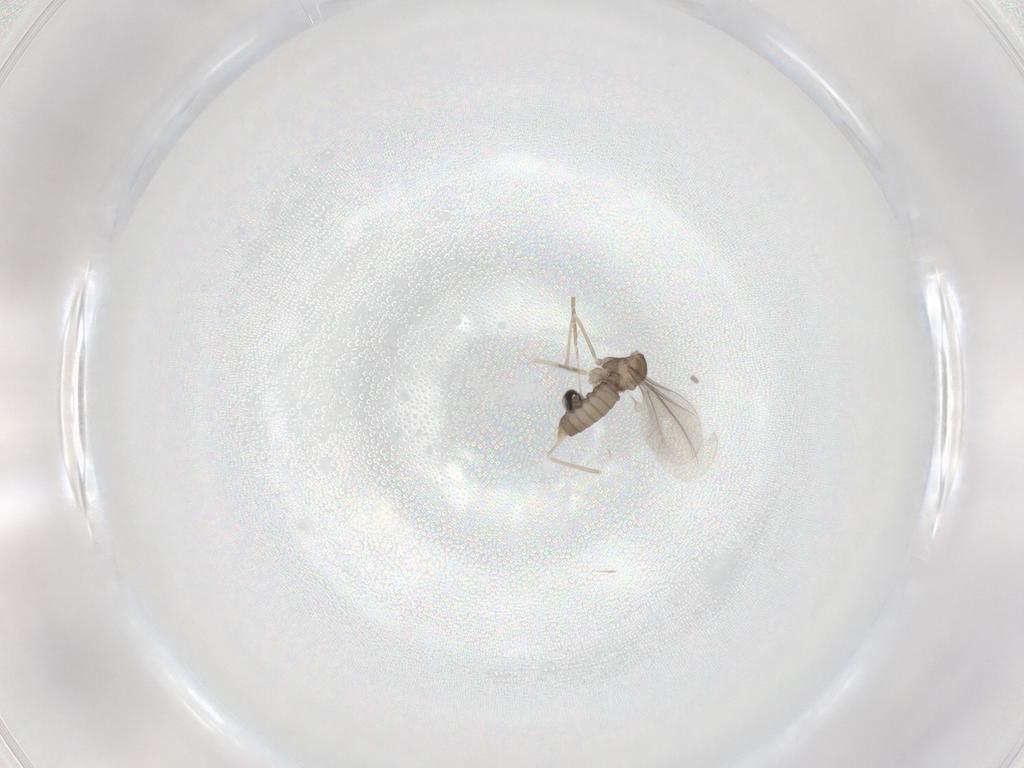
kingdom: Animalia
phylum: Arthropoda
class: Insecta
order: Diptera
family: Cecidomyiidae
